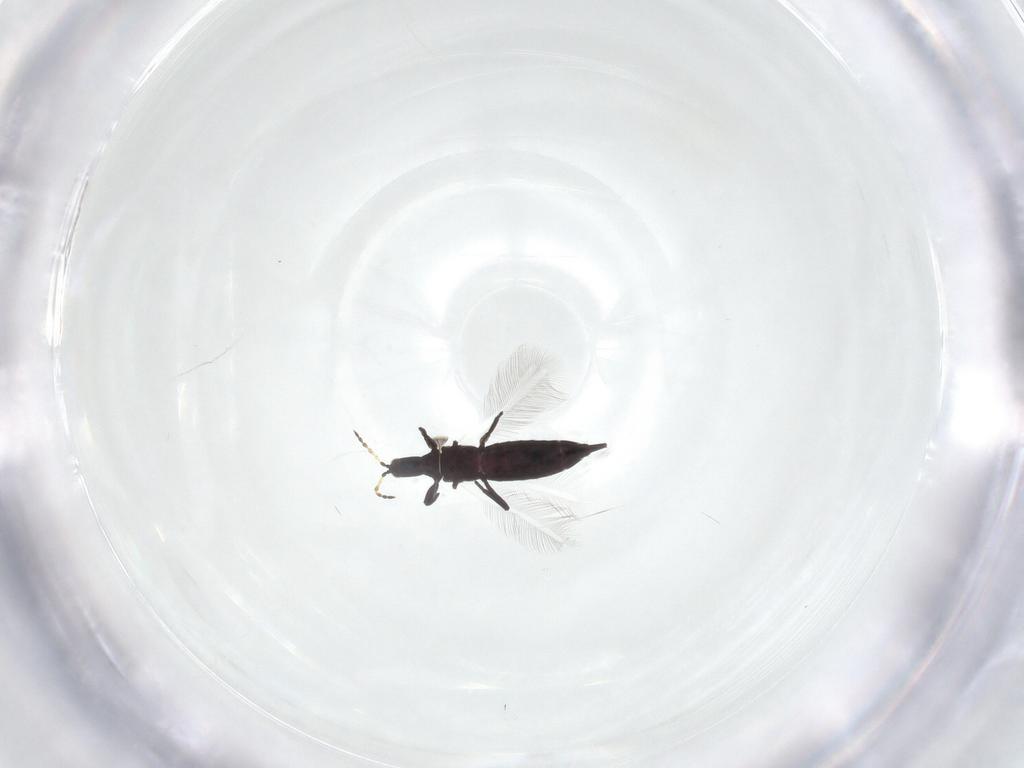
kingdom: Animalia
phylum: Arthropoda
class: Insecta
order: Thysanoptera
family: Phlaeothripidae
